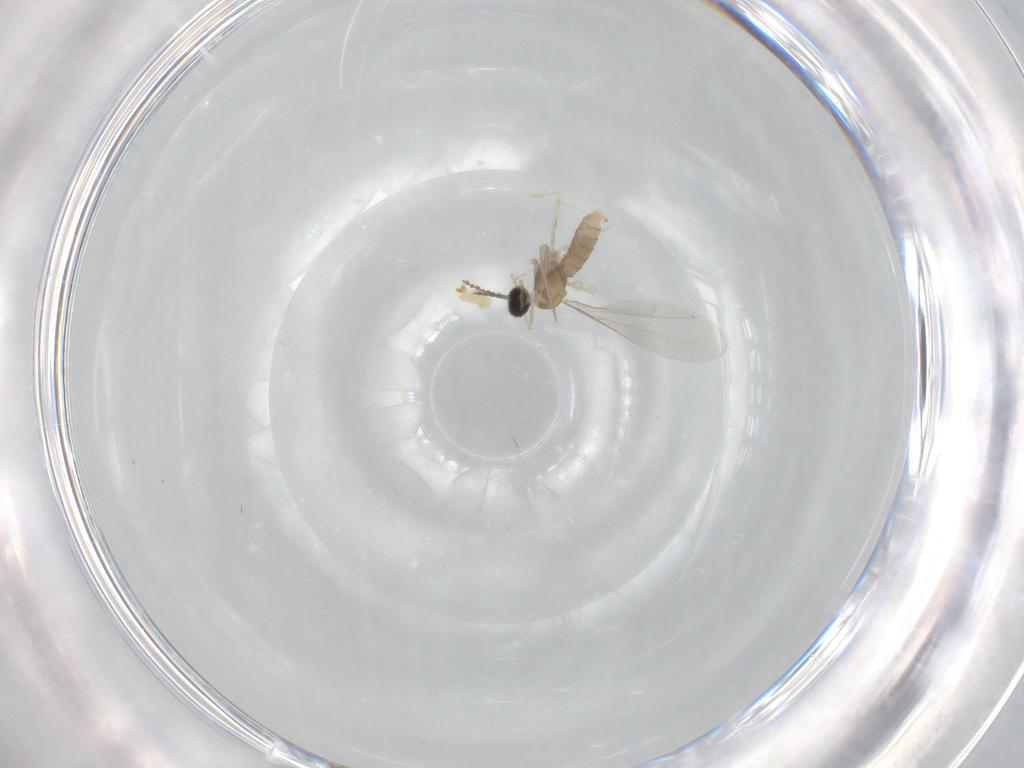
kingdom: Animalia
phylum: Arthropoda
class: Insecta
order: Diptera
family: Cecidomyiidae
